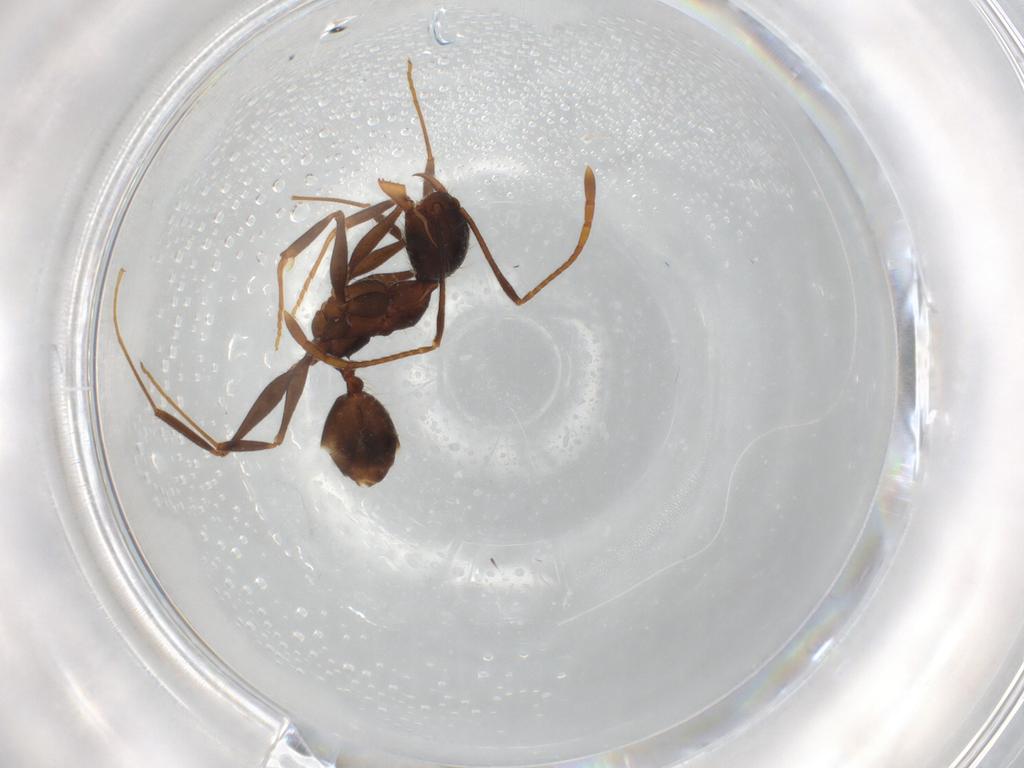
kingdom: Animalia
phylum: Arthropoda
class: Insecta
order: Hymenoptera
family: Formicidae
